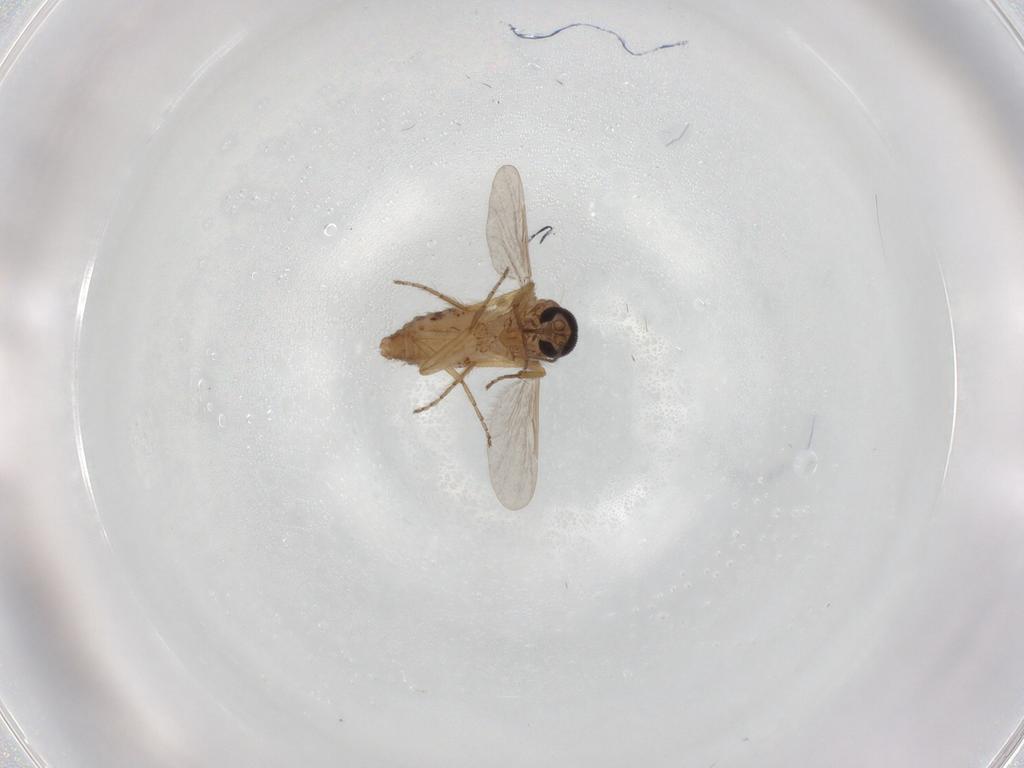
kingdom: Animalia
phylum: Arthropoda
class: Insecta
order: Diptera
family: Ceratopogonidae
